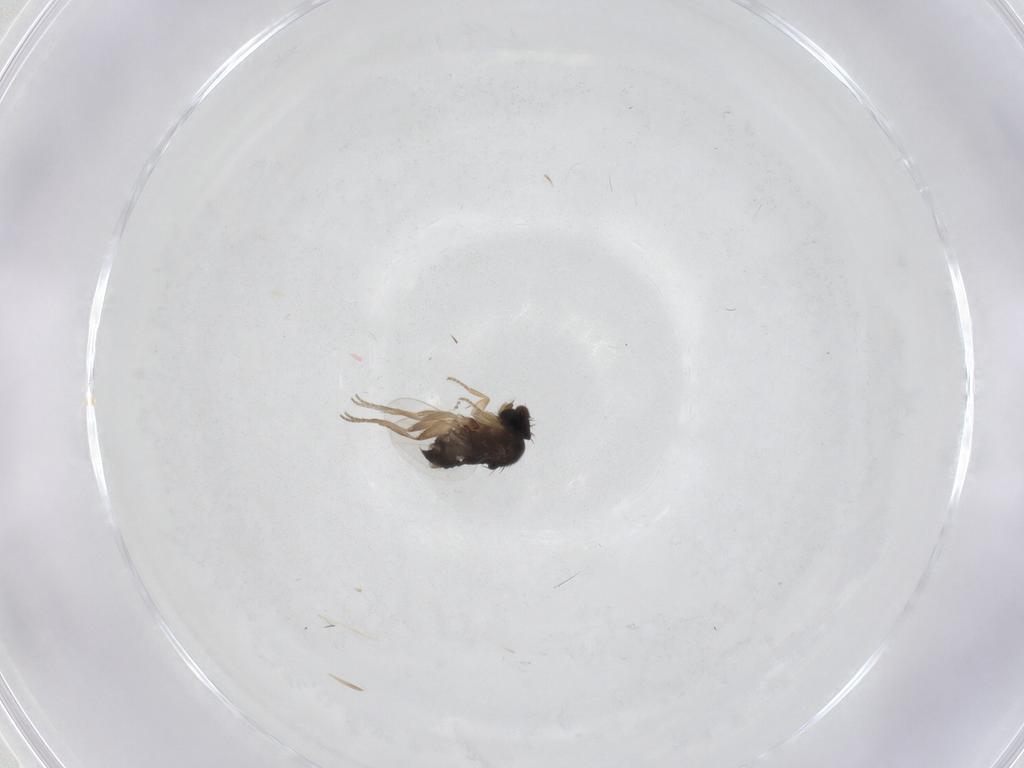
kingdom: Animalia
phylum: Arthropoda
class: Insecta
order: Diptera
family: Phoridae
